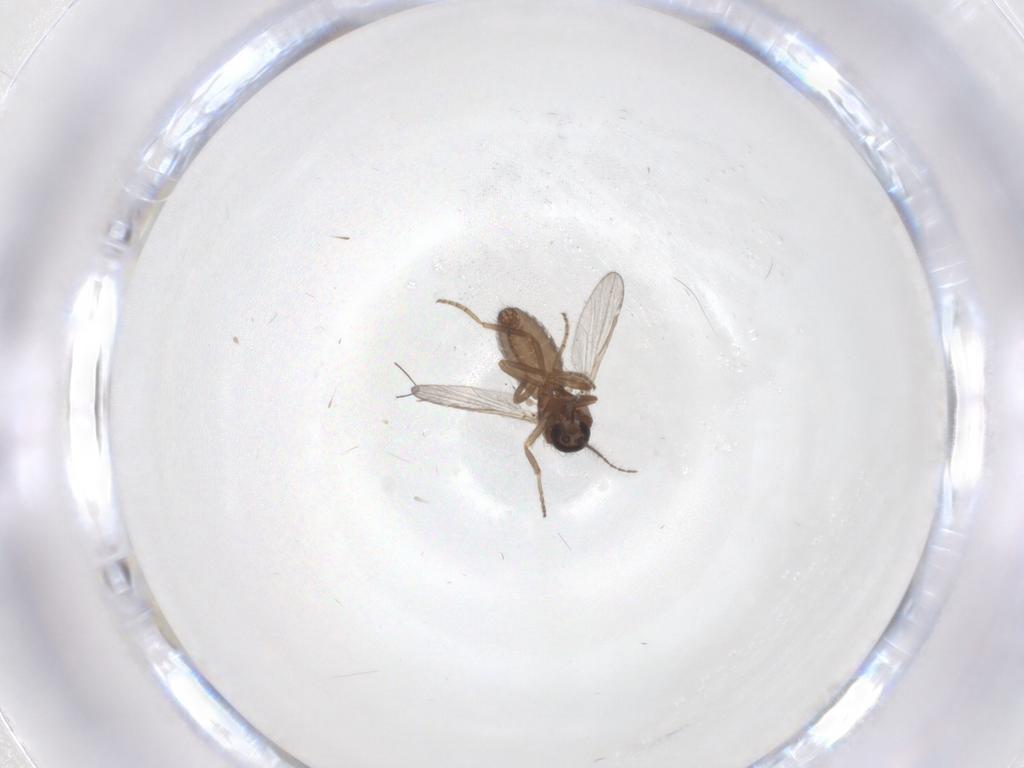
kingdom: Animalia
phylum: Arthropoda
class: Insecta
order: Diptera
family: Ceratopogonidae
